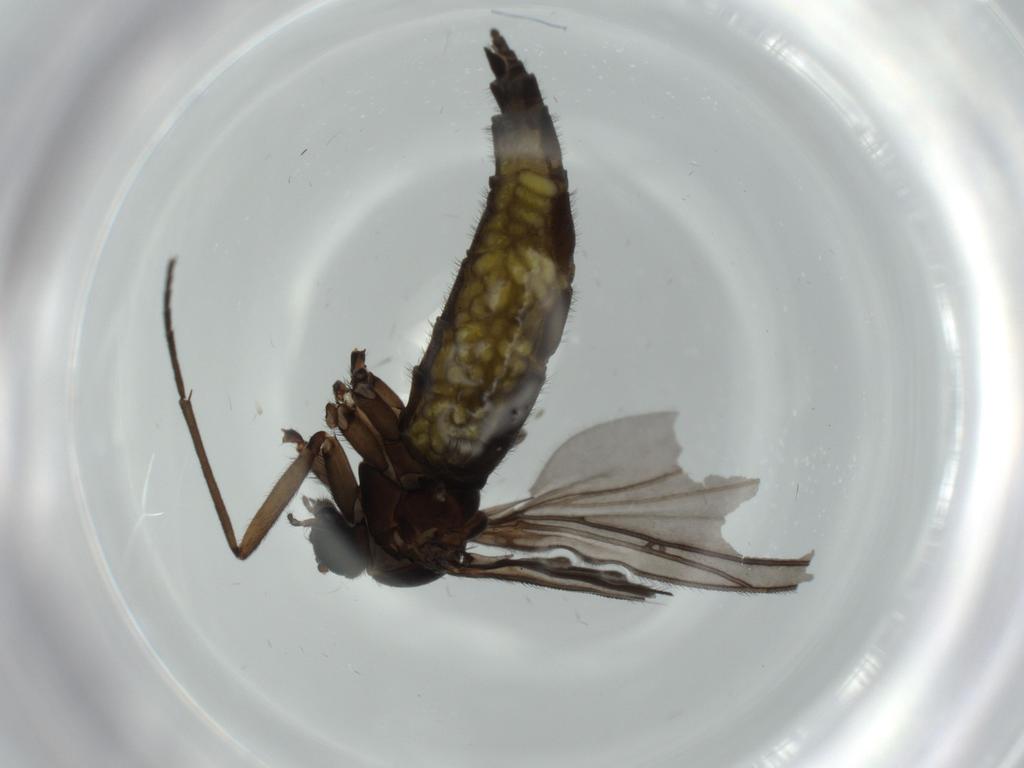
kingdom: Animalia
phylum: Arthropoda
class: Insecta
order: Diptera
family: Sciaridae
